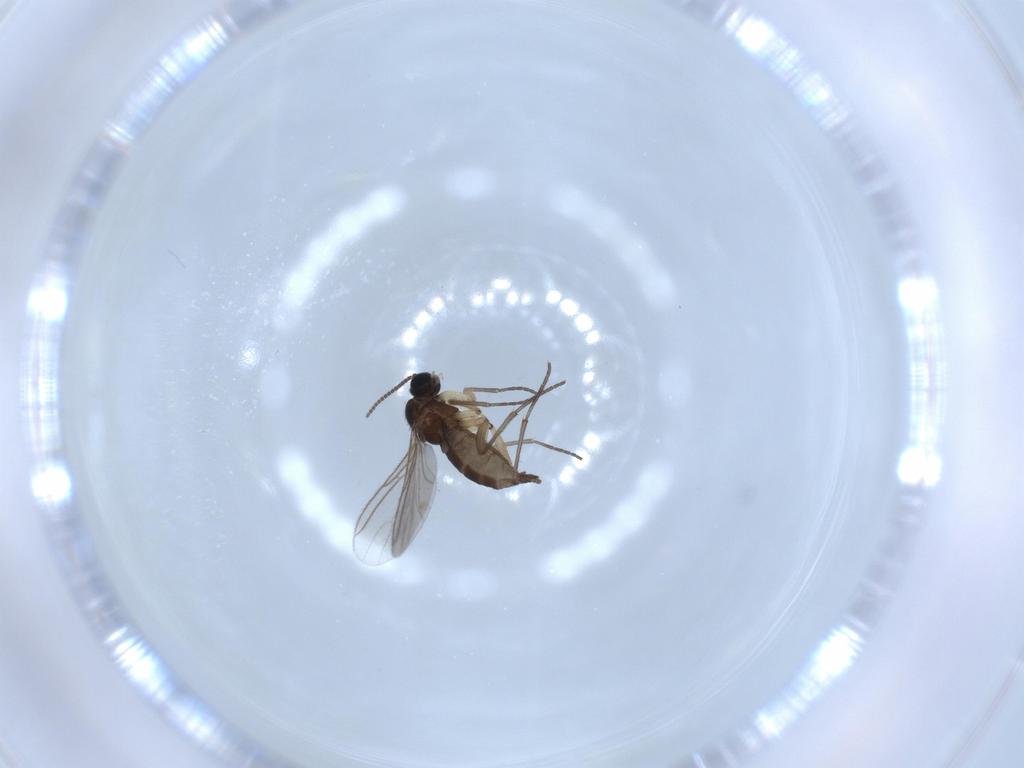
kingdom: Animalia
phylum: Arthropoda
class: Insecta
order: Diptera
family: Sciaridae
